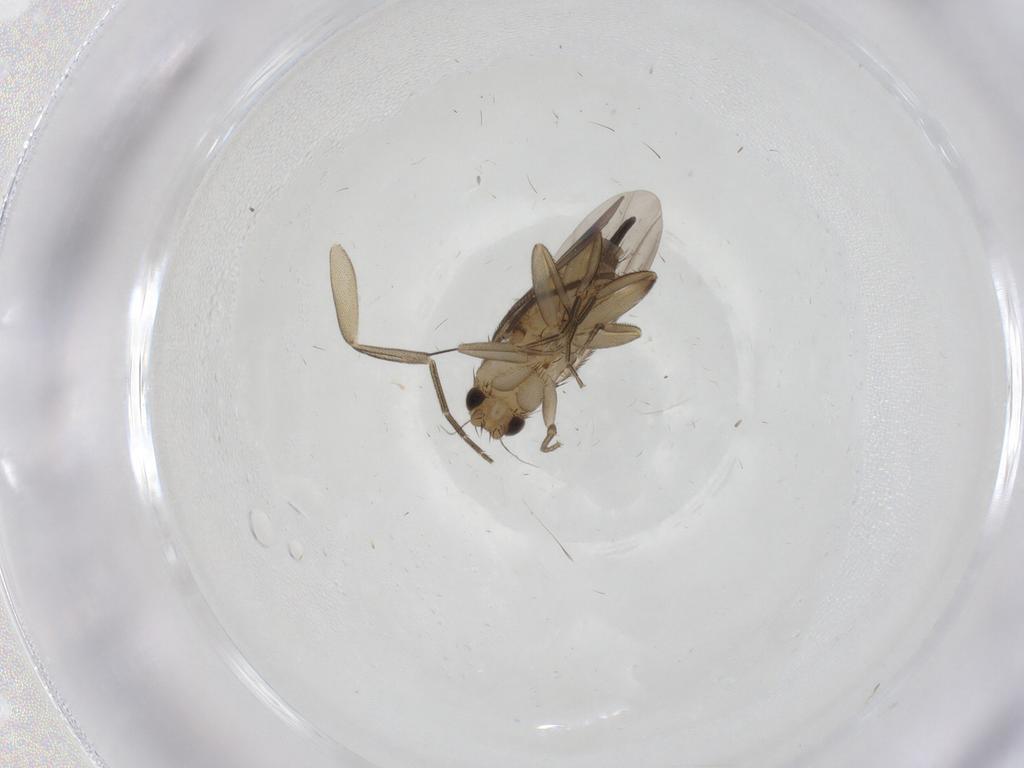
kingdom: Animalia
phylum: Arthropoda
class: Insecta
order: Diptera
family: Phoridae
